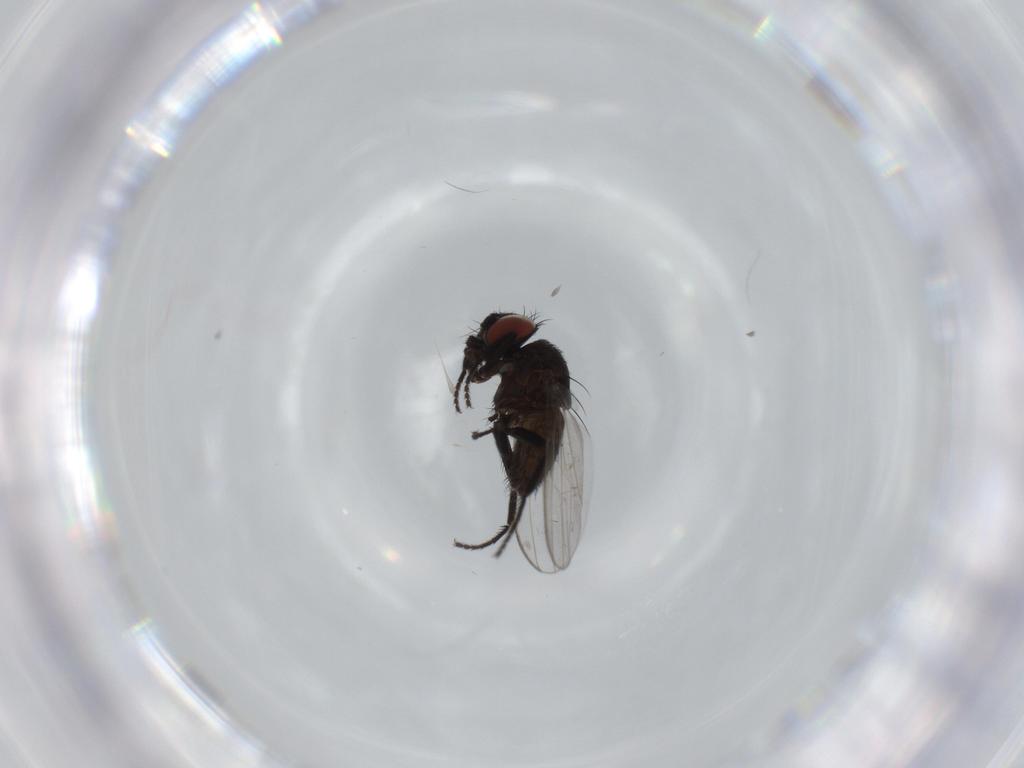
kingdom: Animalia
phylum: Arthropoda
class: Insecta
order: Diptera
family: Milichiidae
